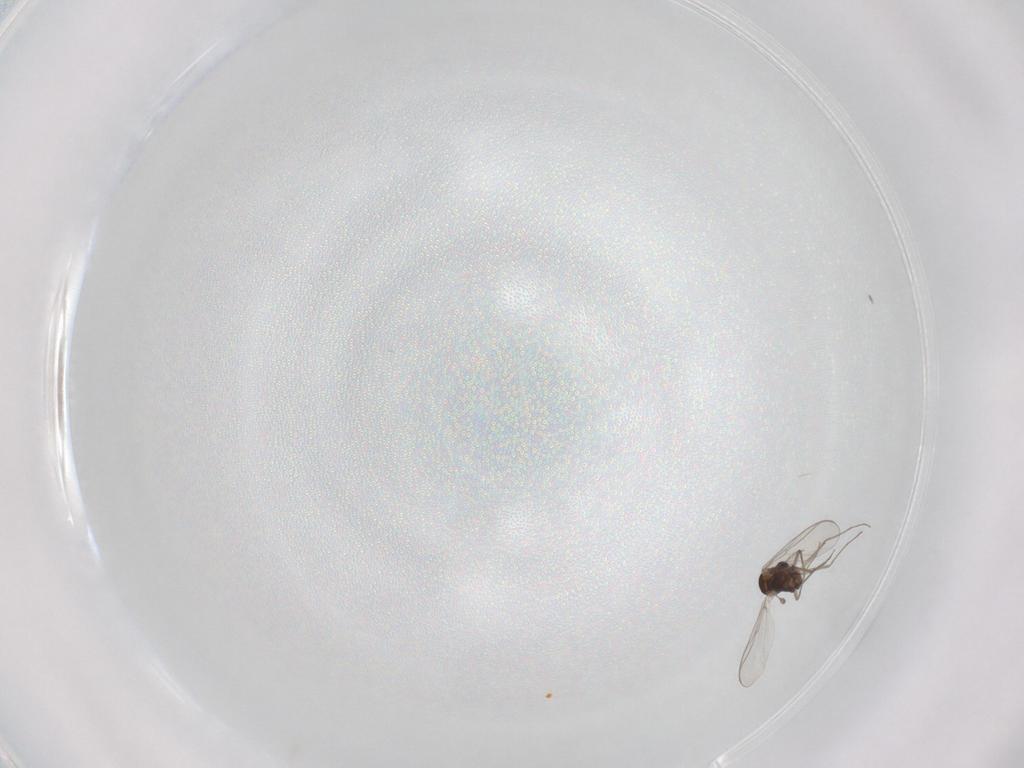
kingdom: Animalia
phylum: Arthropoda
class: Insecta
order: Diptera
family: Chironomidae
